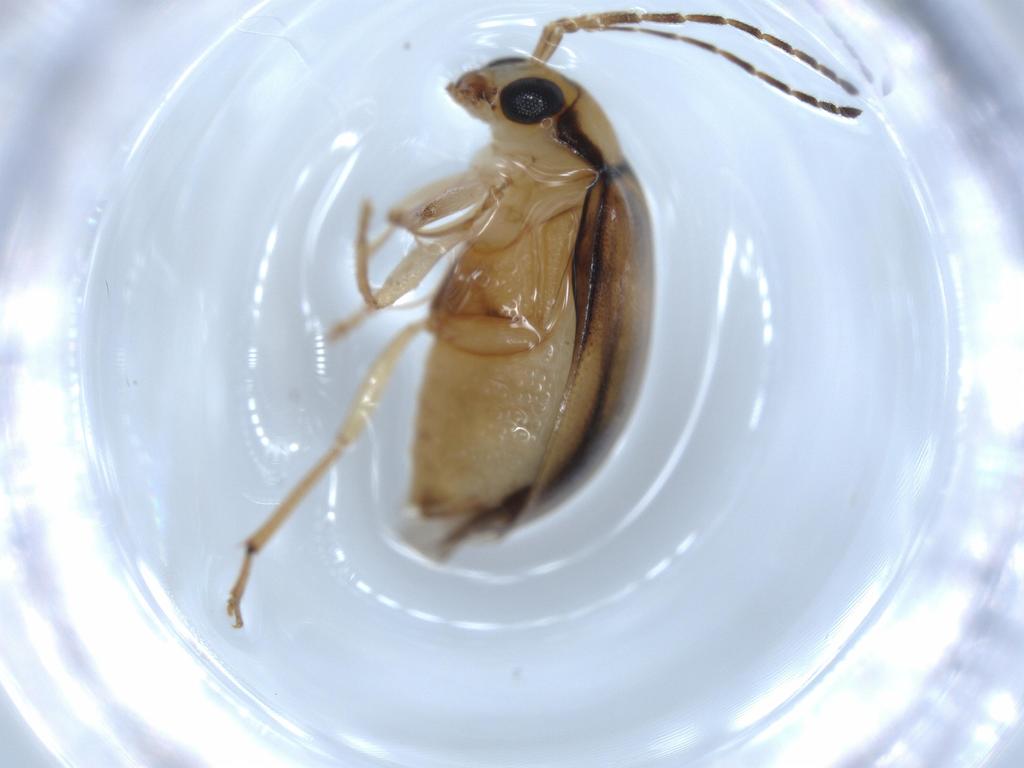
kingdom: Animalia
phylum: Arthropoda
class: Insecta
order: Coleoptera
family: Chrysomelidae
